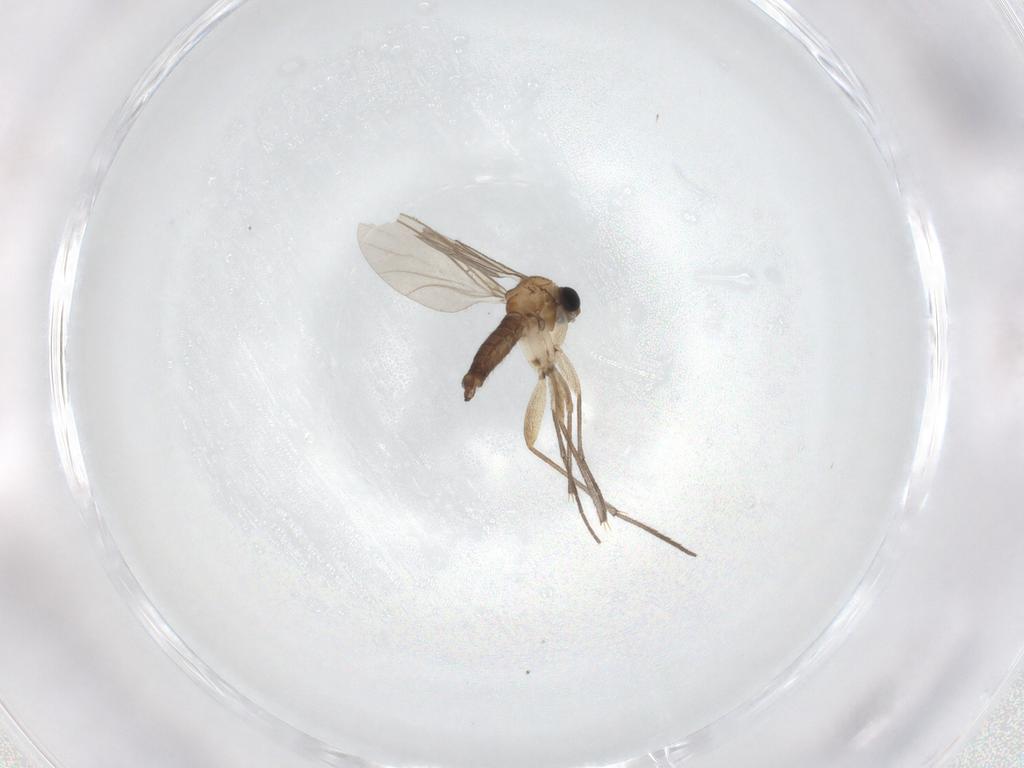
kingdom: Animalia
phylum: Arthropoda
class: Insecta
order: Diptera
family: Sciaridae
